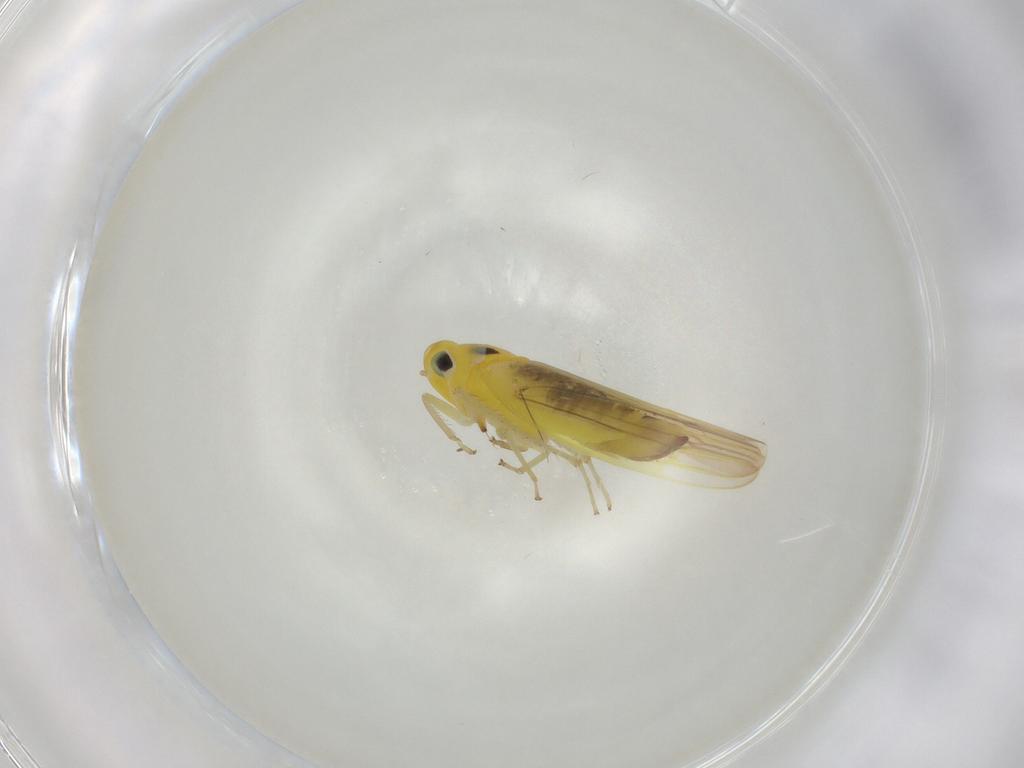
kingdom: Animalia
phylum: Arthropoda
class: Insecta
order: Hemiptera
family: Cicadellidae
